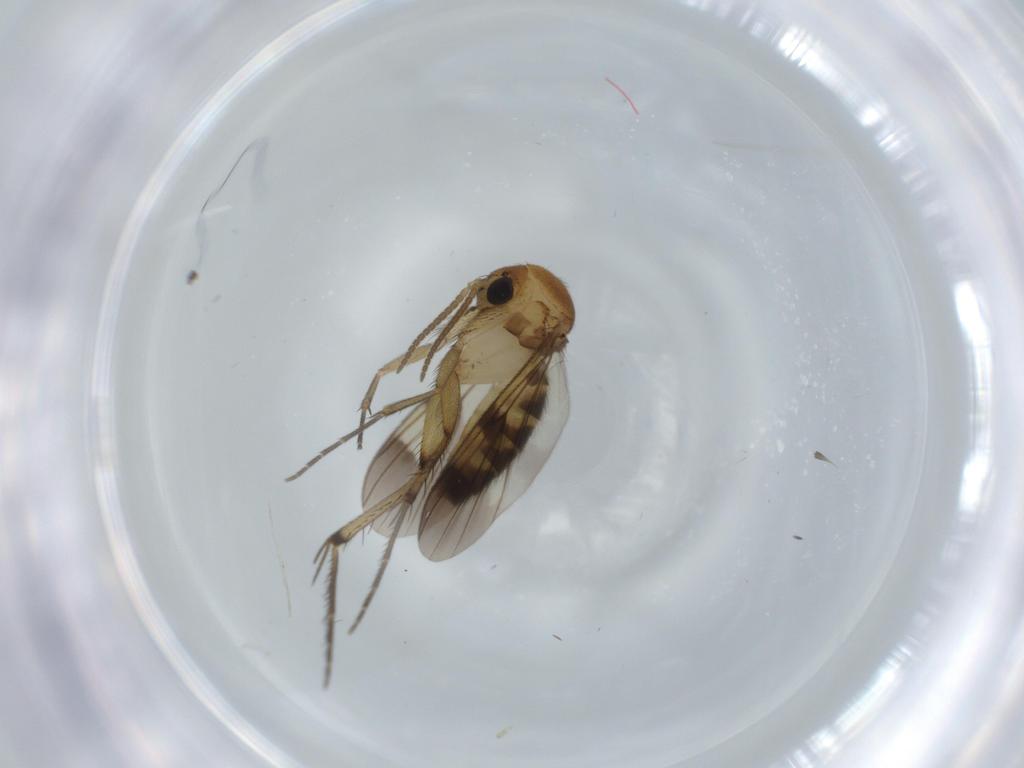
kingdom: Animalia
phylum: Arthropoda
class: Insecta
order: Diptera
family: Mycetophilidae
